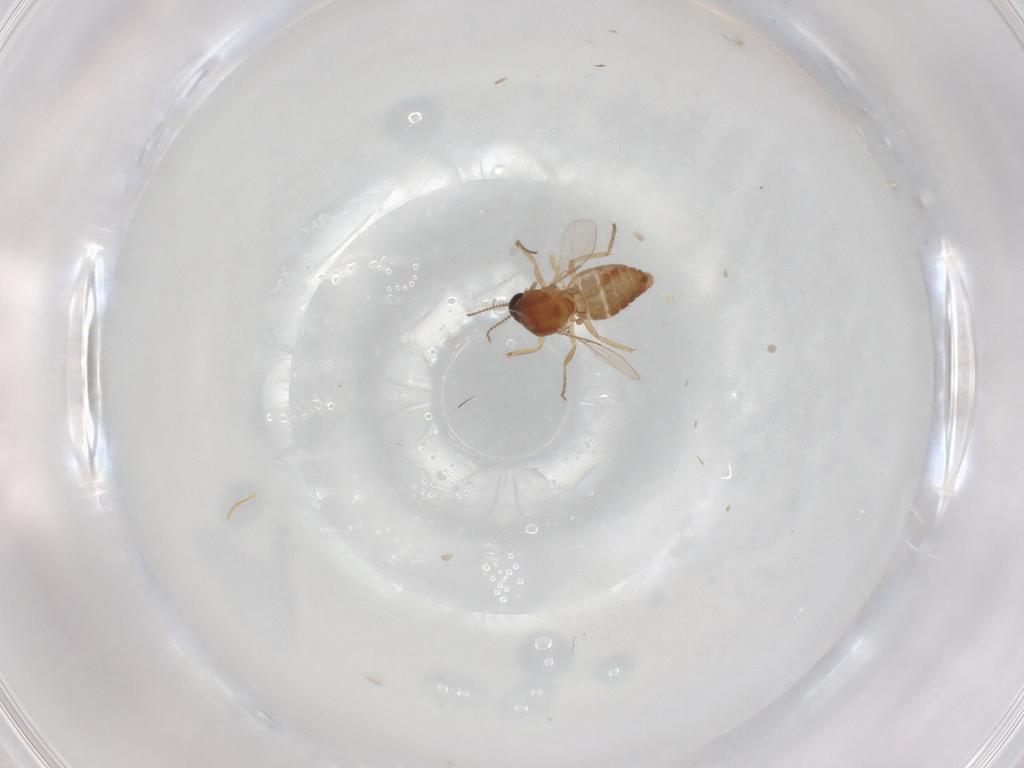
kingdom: Animalia
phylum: Arthropoda
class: Insecta
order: Diptera
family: Ceratopogonidae
